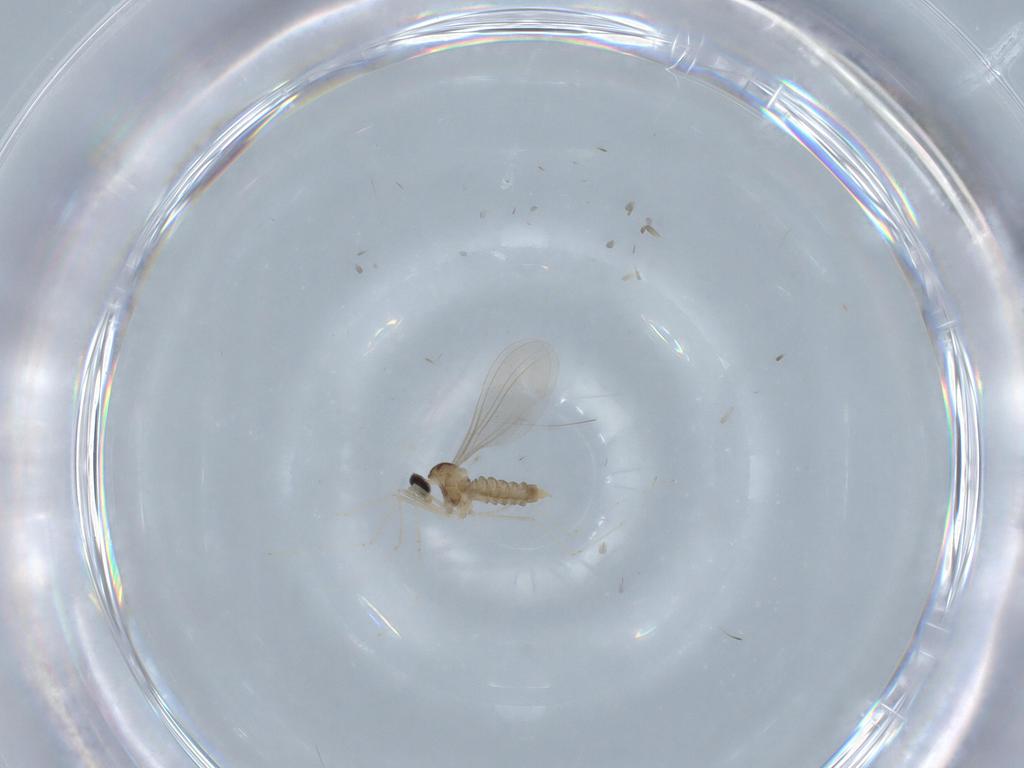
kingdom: Animalia
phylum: Arthropoda
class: Insecta
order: Diptera
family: Cecidomyiidae
